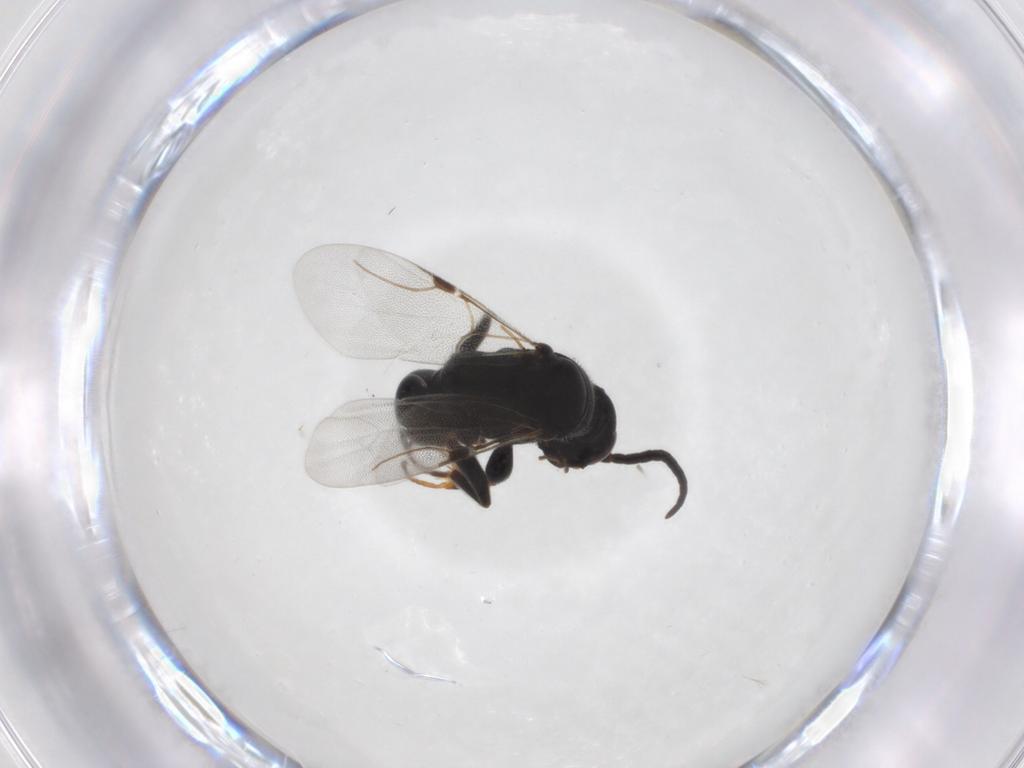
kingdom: Animalia
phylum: Arthropoda
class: Insecta
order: Hymenoptera
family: Bethylidae
